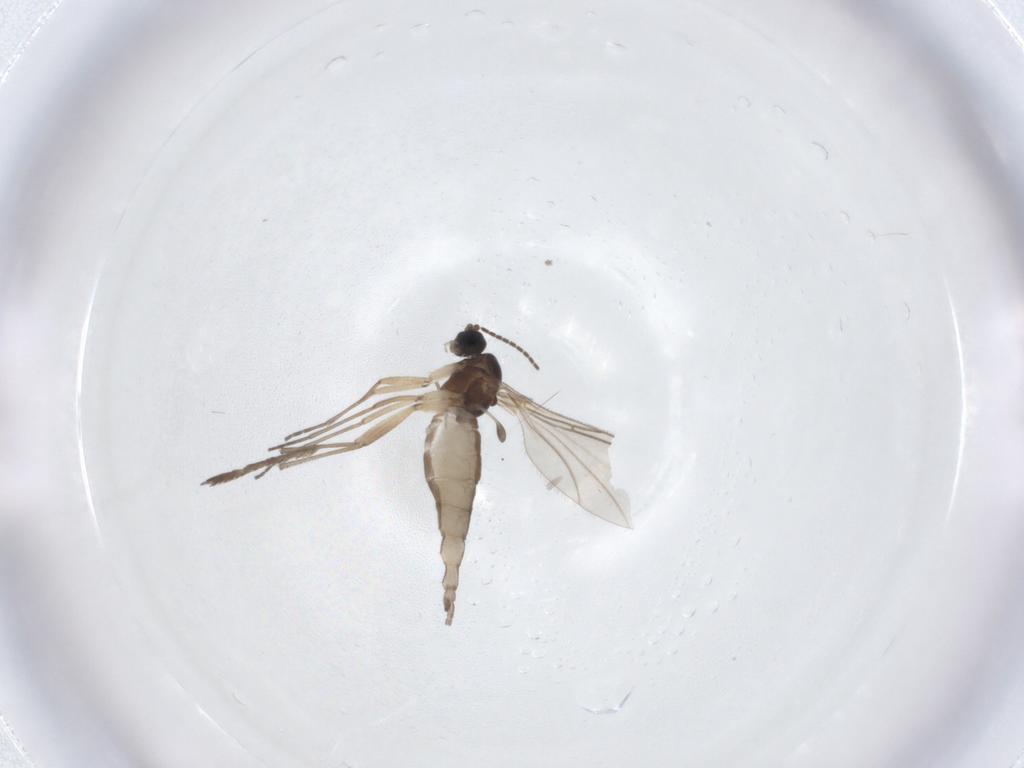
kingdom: Animalia
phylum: Arthropoda
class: Insecta
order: Diptera
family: Sciaridae
